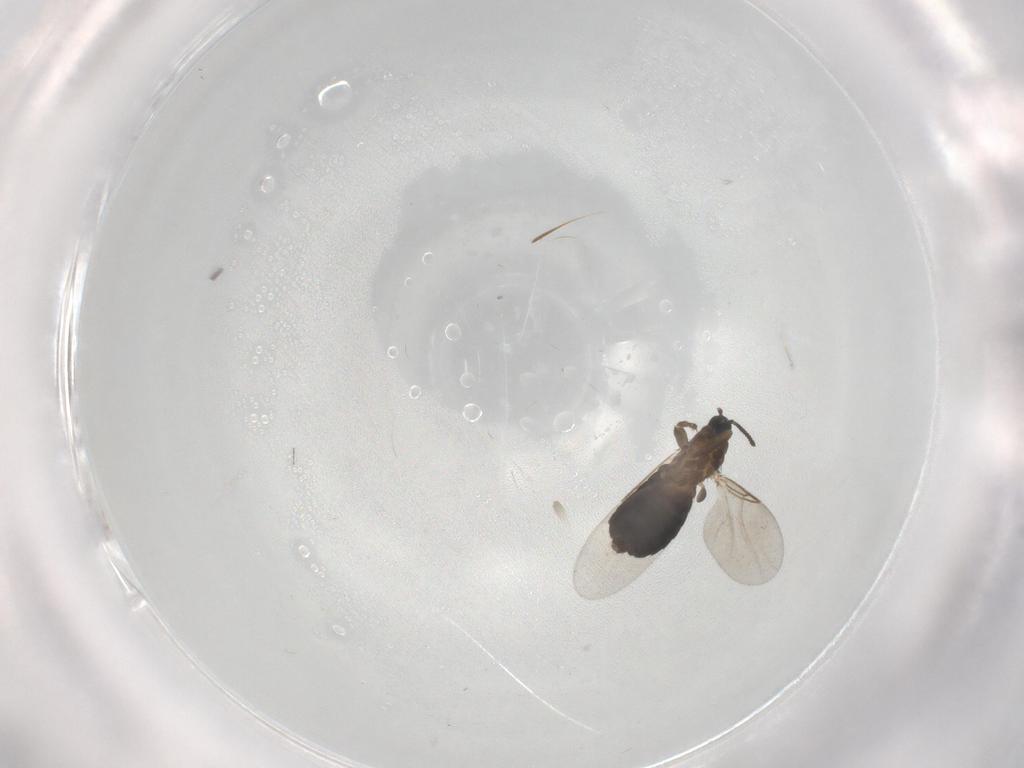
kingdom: Animalia
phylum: Arthropoda
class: Insecta
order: Diptera
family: Scatopsidae
